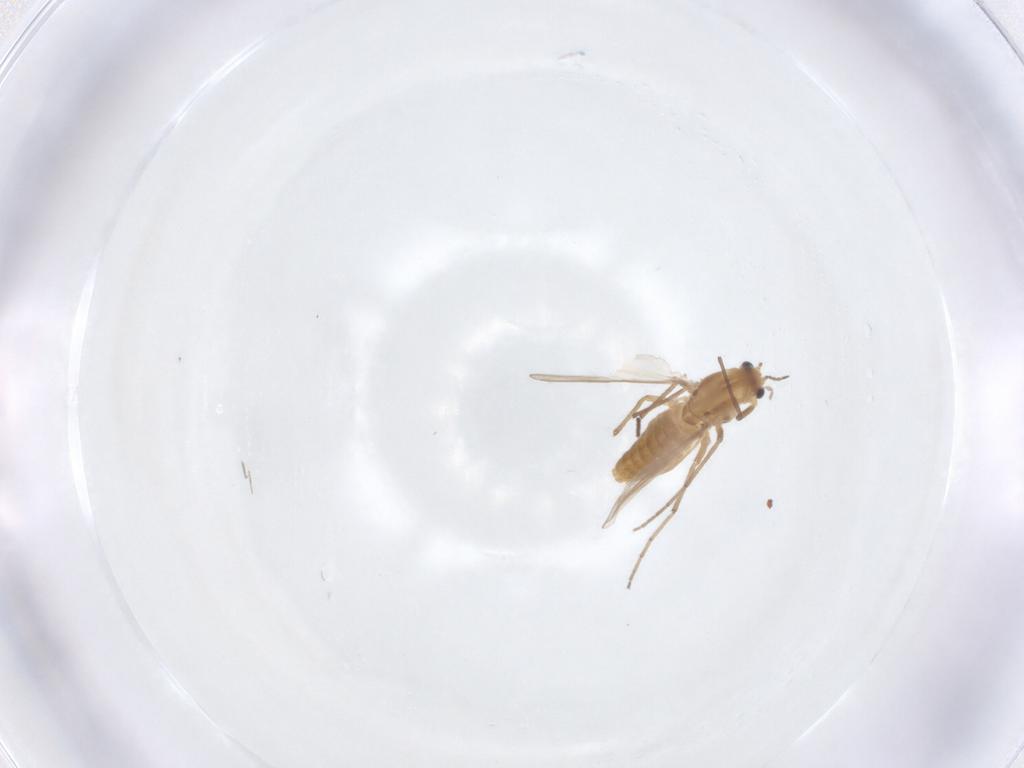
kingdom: Animalia
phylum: Arthropoda
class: Insecta
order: Diptera
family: Chironomidae
